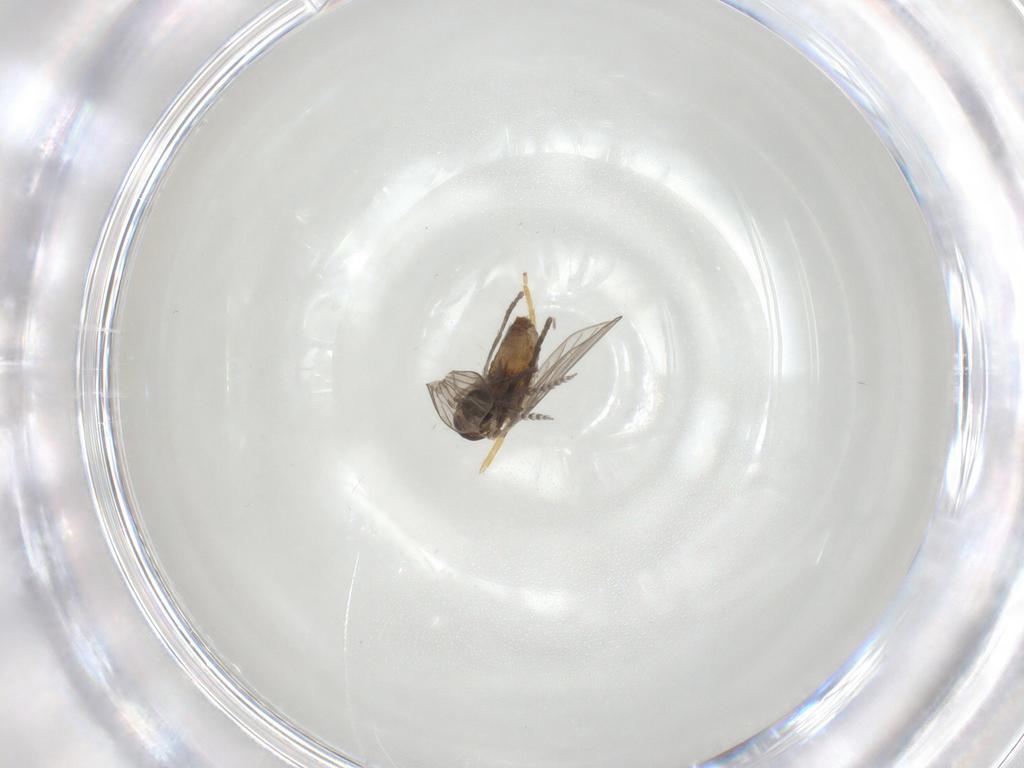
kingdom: Animalia
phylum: Arthropoda
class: Insecta
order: Diptera
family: Psychodidae
